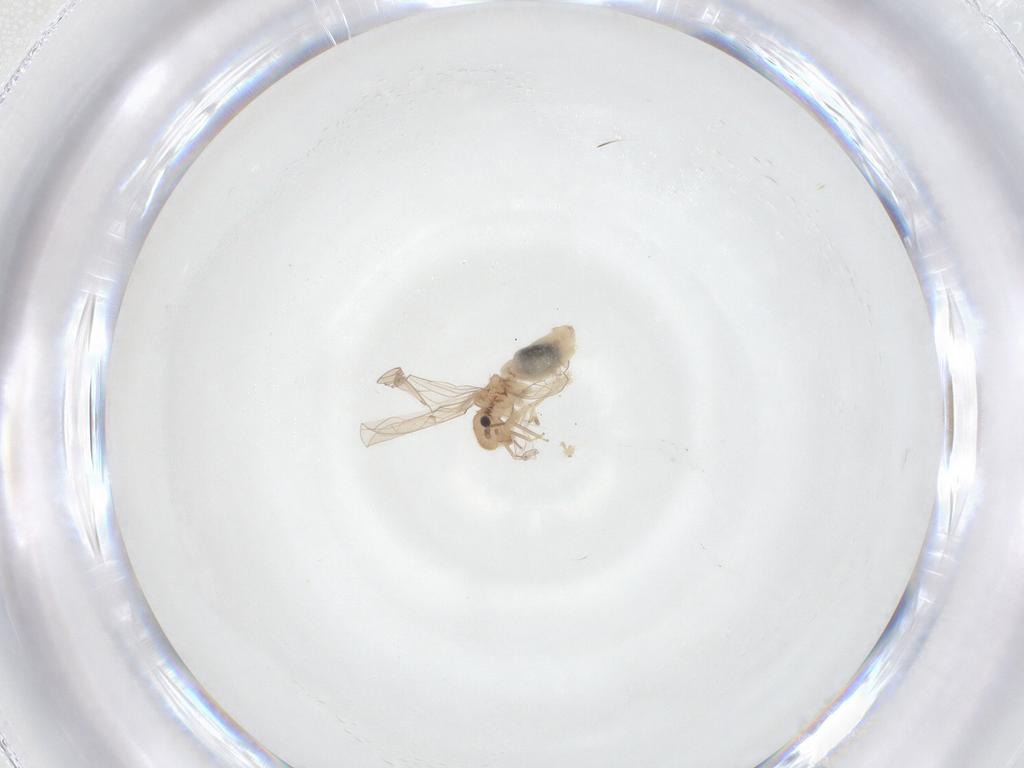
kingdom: Animalia
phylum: Arthropoda
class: Insecta
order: Psocodea
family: Ectopsocidae
